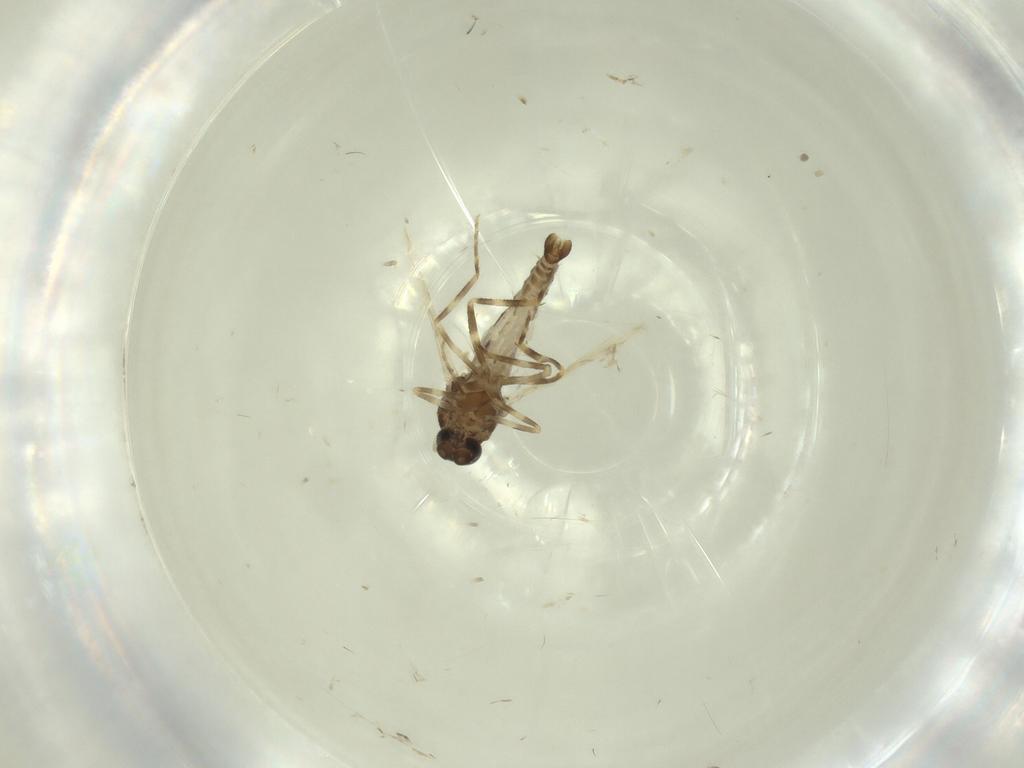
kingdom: Animalia
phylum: Arthropoda
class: Insecta
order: Diptera
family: Ceratopogonidae
